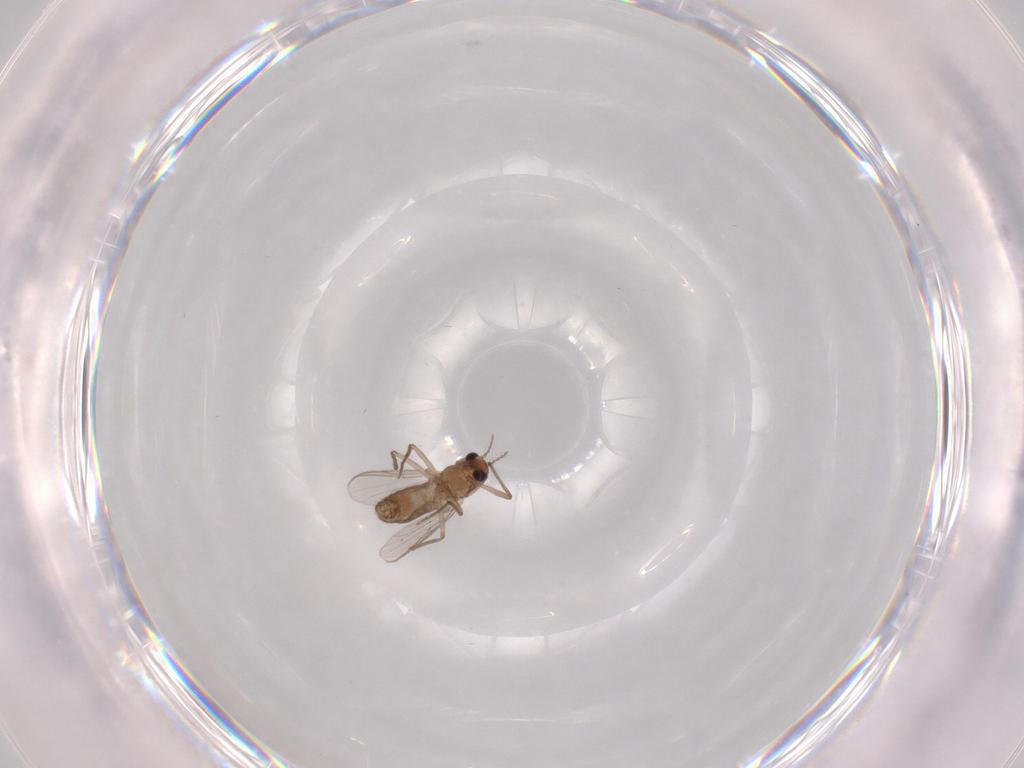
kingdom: Animalia
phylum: Arthropoda
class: Insecta
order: Diptera
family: Chironomidae
